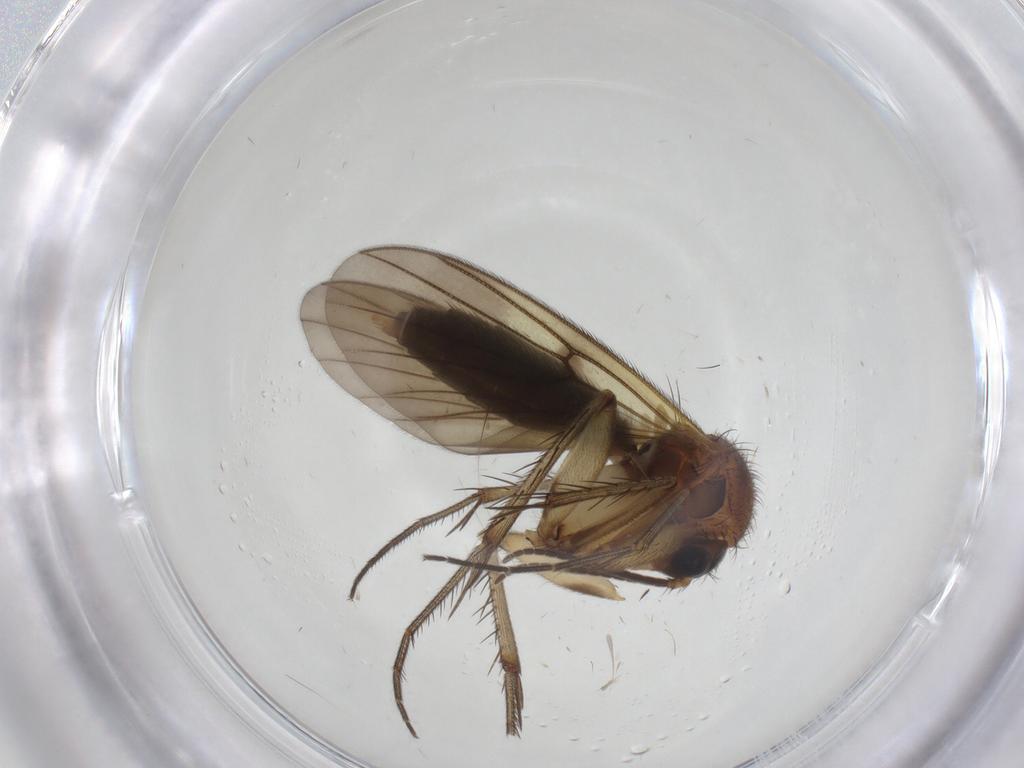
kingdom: Animalia
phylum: Arthropoda
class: Insecta
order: Diptera
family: Mycetophilidae
